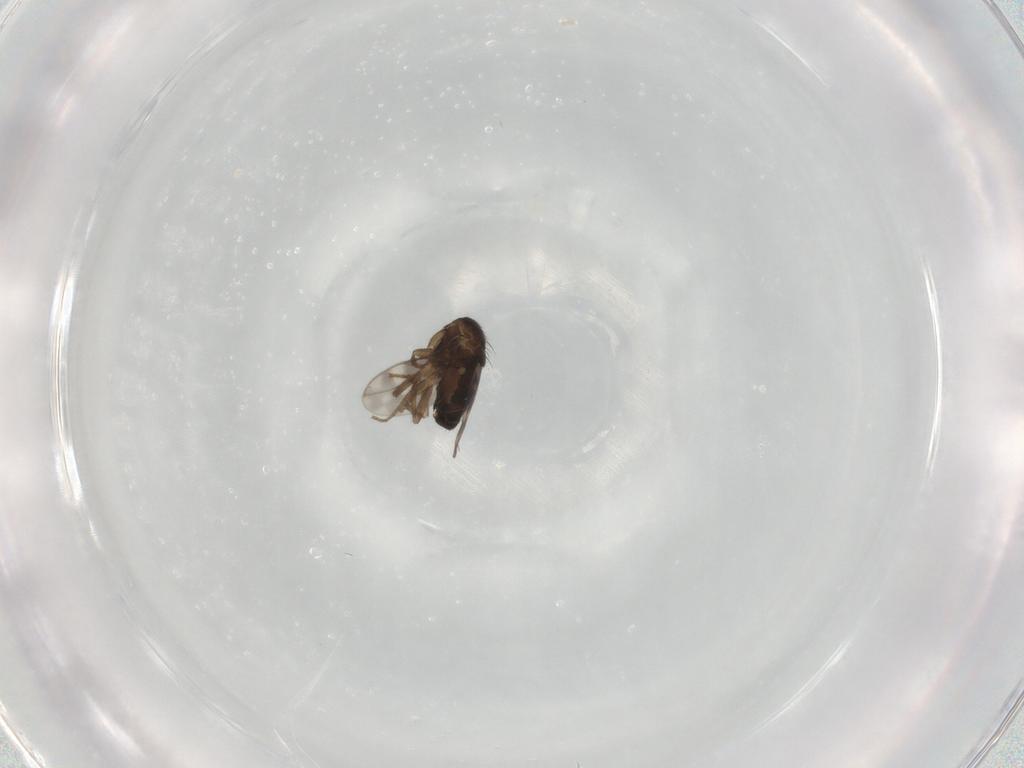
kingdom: Animalia
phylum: Arthropoda
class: Insecta
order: Diptera
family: Sphaeroceridae
